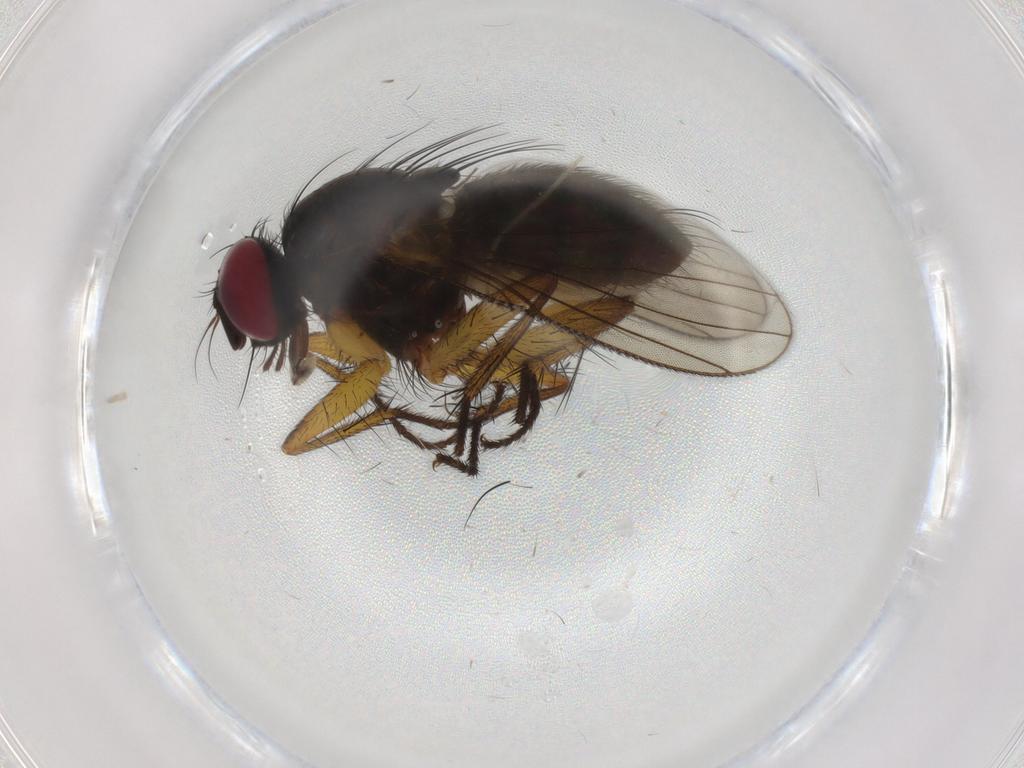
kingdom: Animalia
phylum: Arthropoda
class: Insecta
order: Diptera
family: Muscidae
